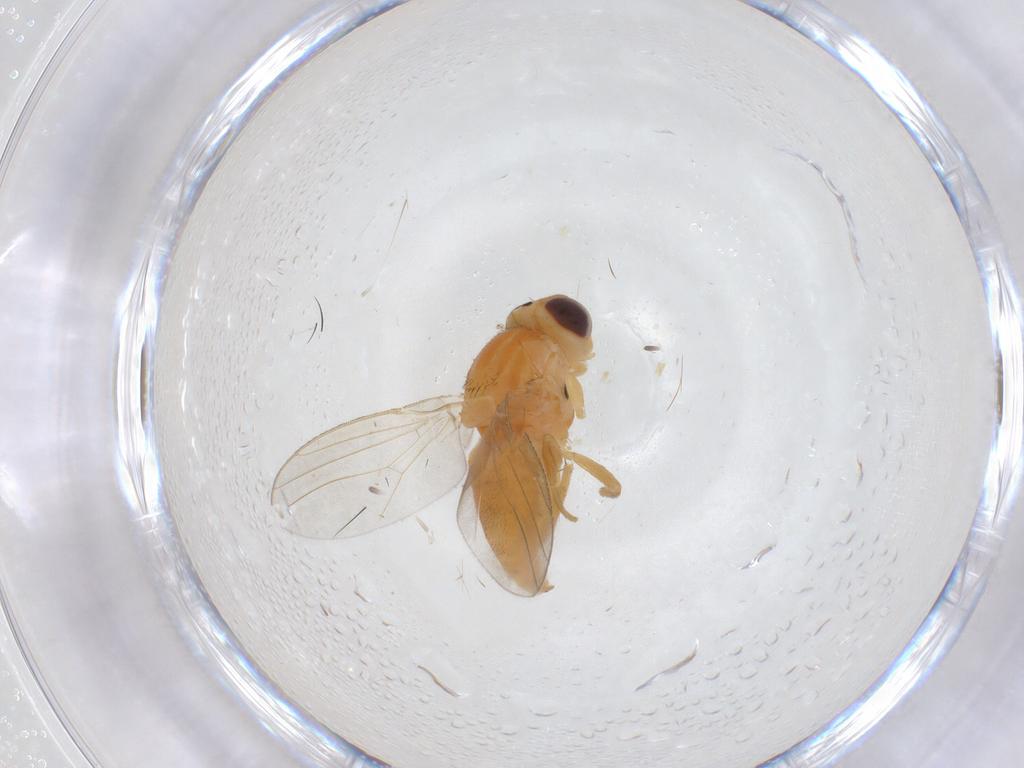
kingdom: Animalia
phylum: Arthropoda
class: Insecta
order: Diptera
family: Chloropidae
